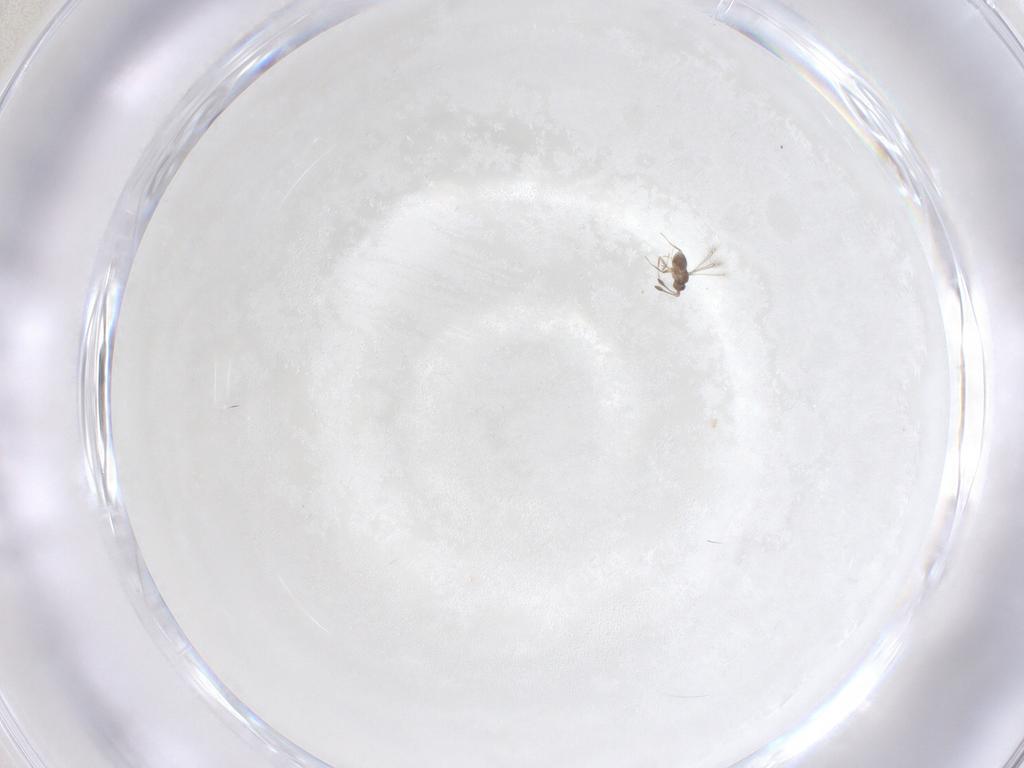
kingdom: Animalia
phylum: Arthropoda
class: Insecta
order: Hymenoptera
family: Mymaridae
